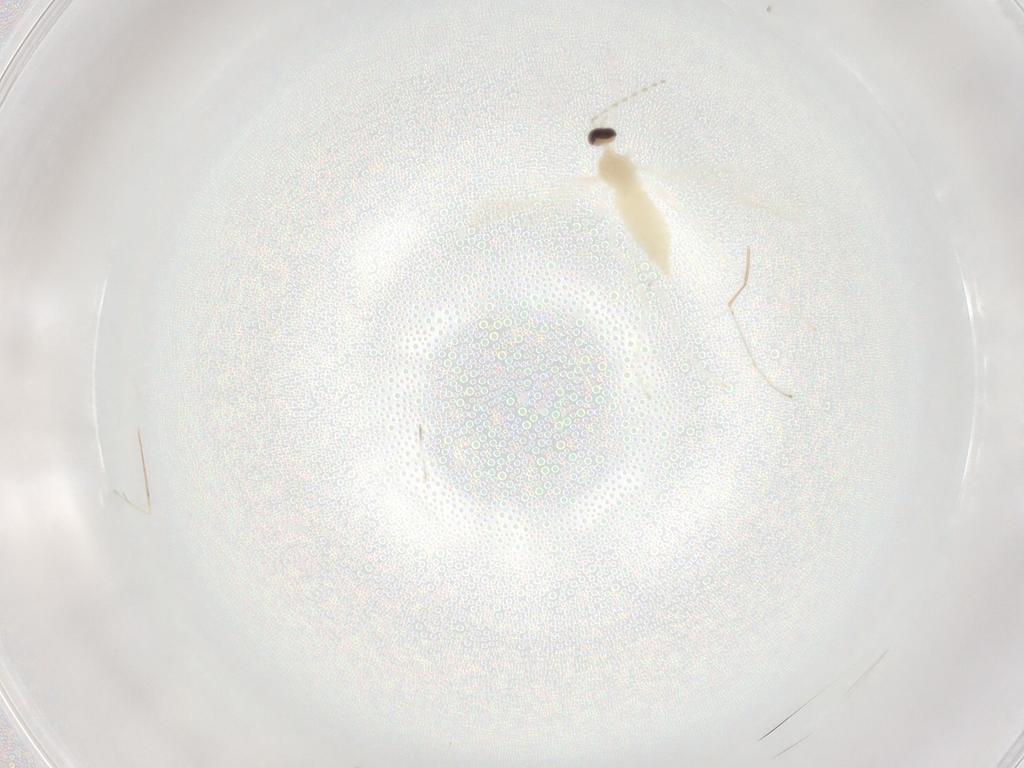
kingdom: Animalia
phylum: Arthropoda
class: Insecta
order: Diptera
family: Cecidomyiidae
